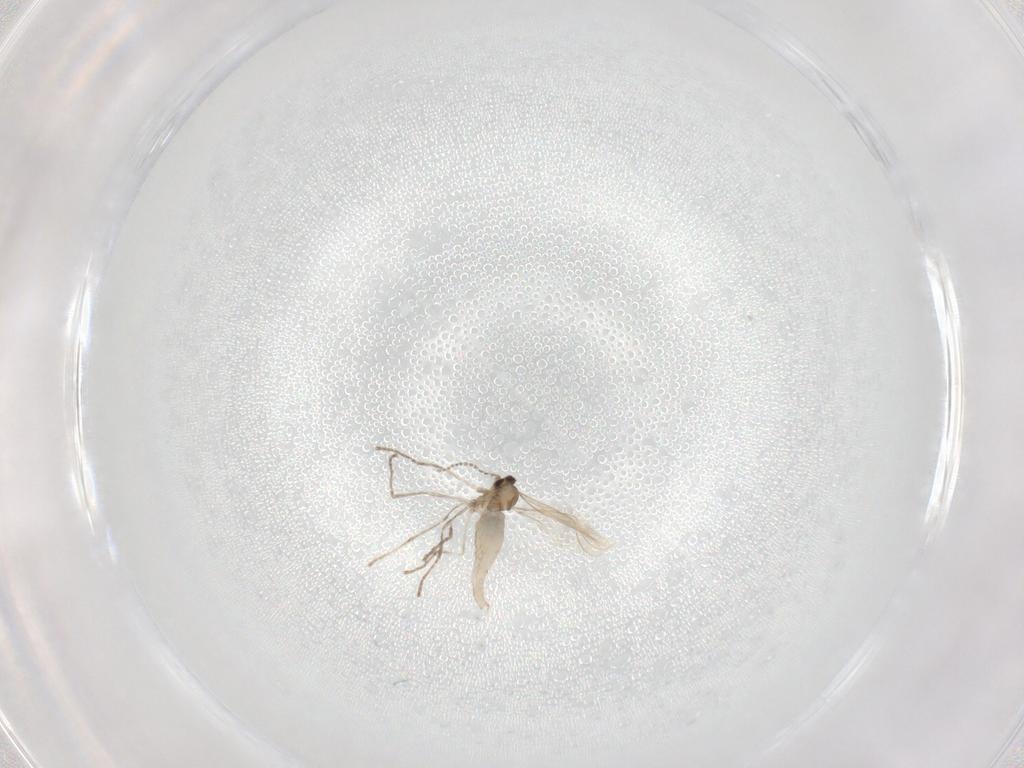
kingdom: Animalia
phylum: Arthropoda
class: Insecta
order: Diptera
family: Cecidomyiidae
